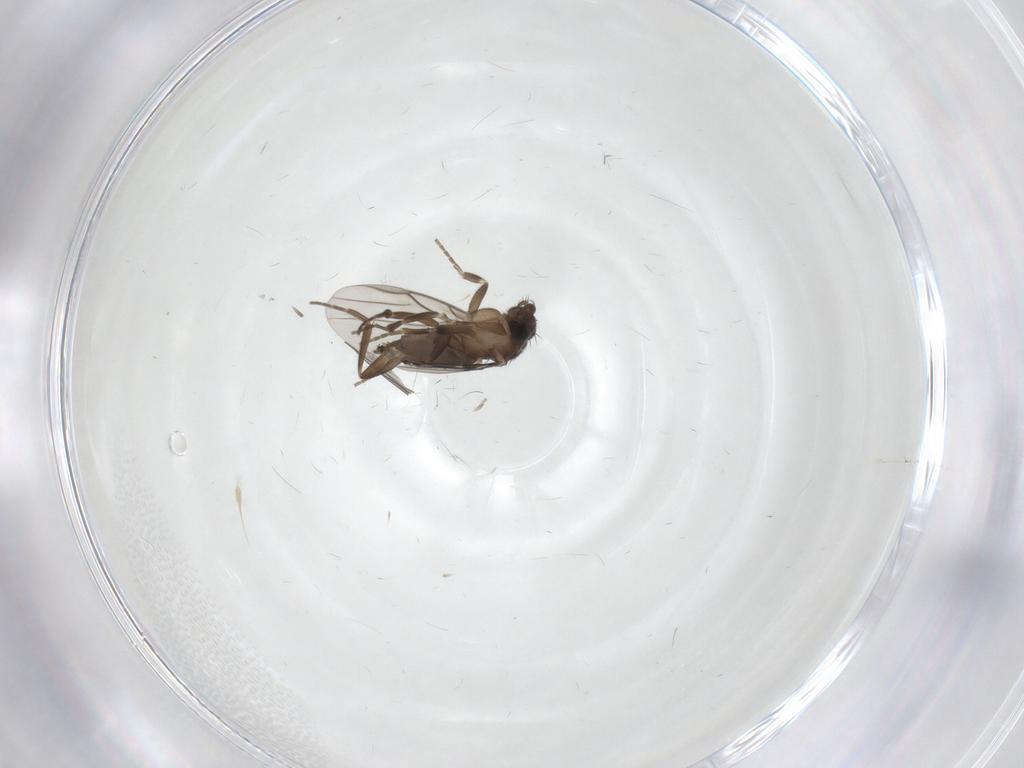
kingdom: Animalia
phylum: Arthropoda
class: Insecta
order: Diptera
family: Phoridae
